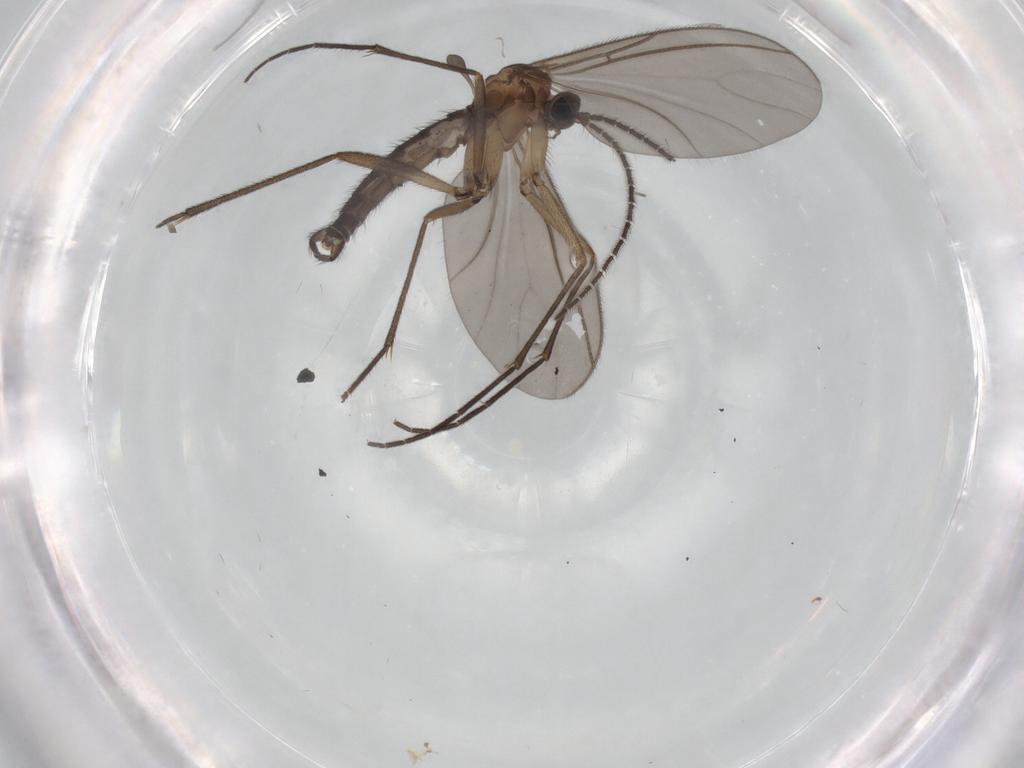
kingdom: Animalia
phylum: Arthropoda
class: Insecta
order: Diptera
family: Sciaridae
